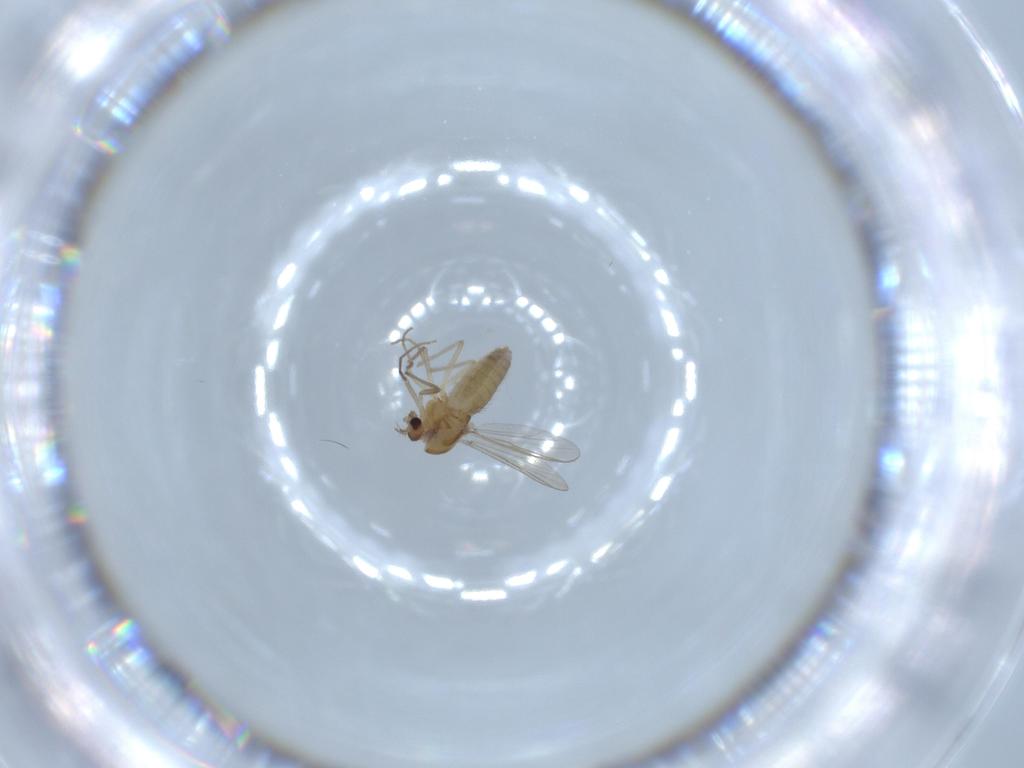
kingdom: Animalia
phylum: Arthropoda
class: Insecta
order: Diptera
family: Chironomidae
